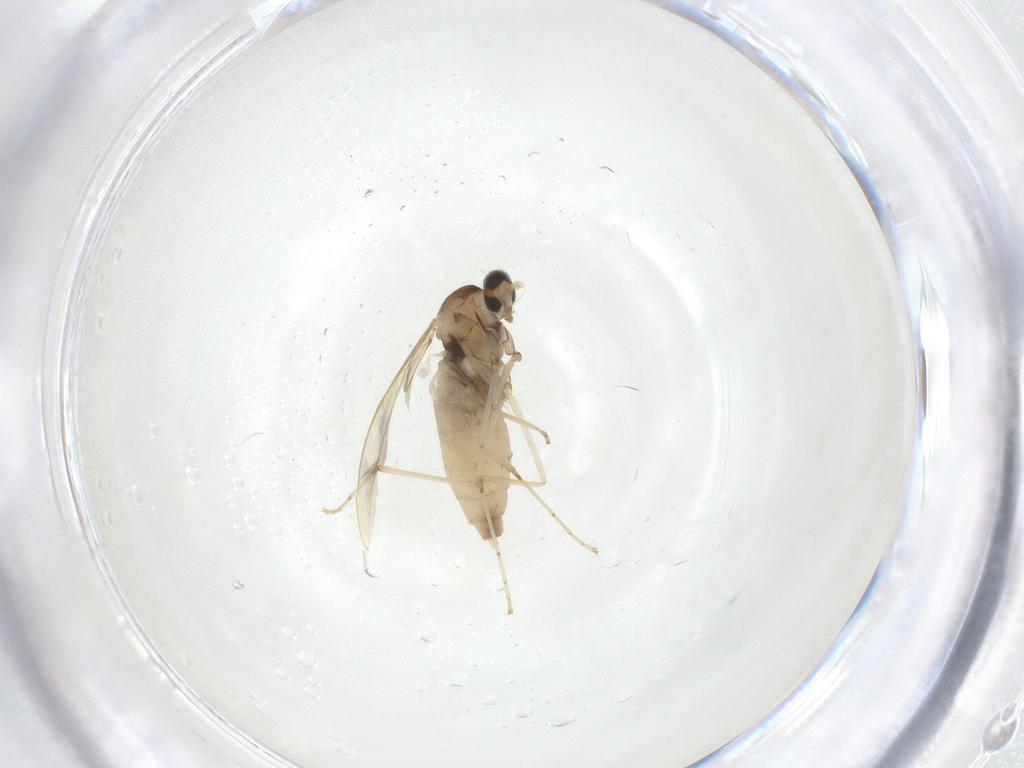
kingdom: Animalia
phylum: Arthropoda
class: Insecta
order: Diptera
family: Cecidomyiidae
